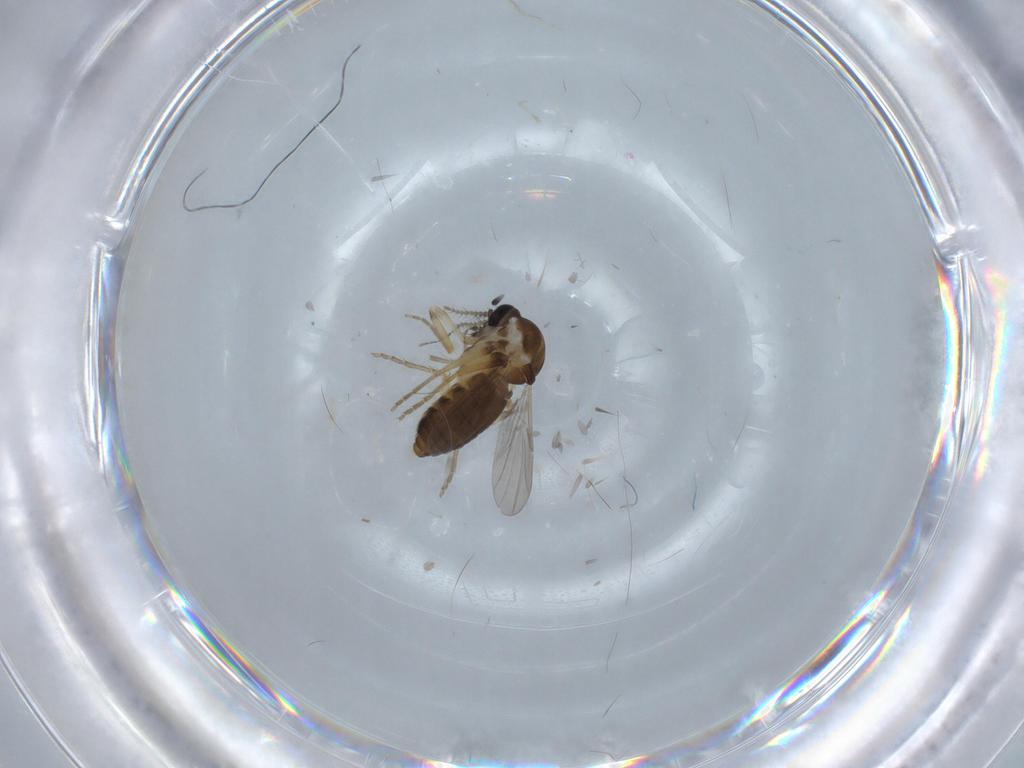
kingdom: Animalia
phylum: Arthropoda
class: Insecta
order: Diptera
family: Ceratopogonidae
